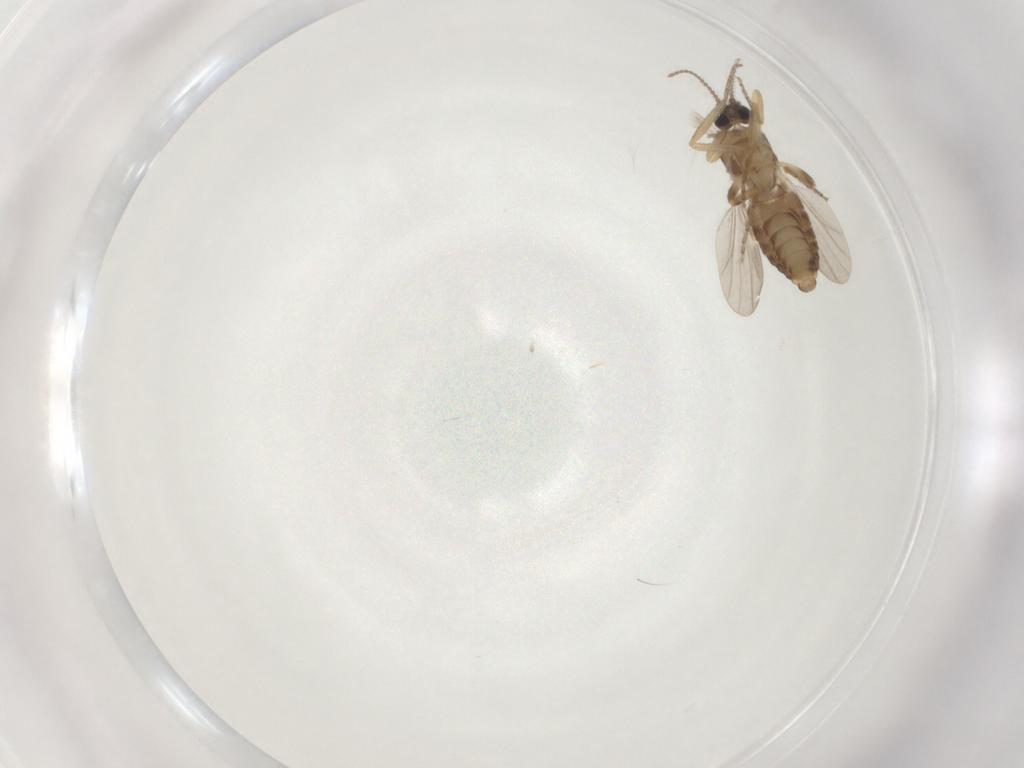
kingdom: Animalia
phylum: Arthropoda
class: Insecta
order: Diptera
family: Ceratopogonidae
